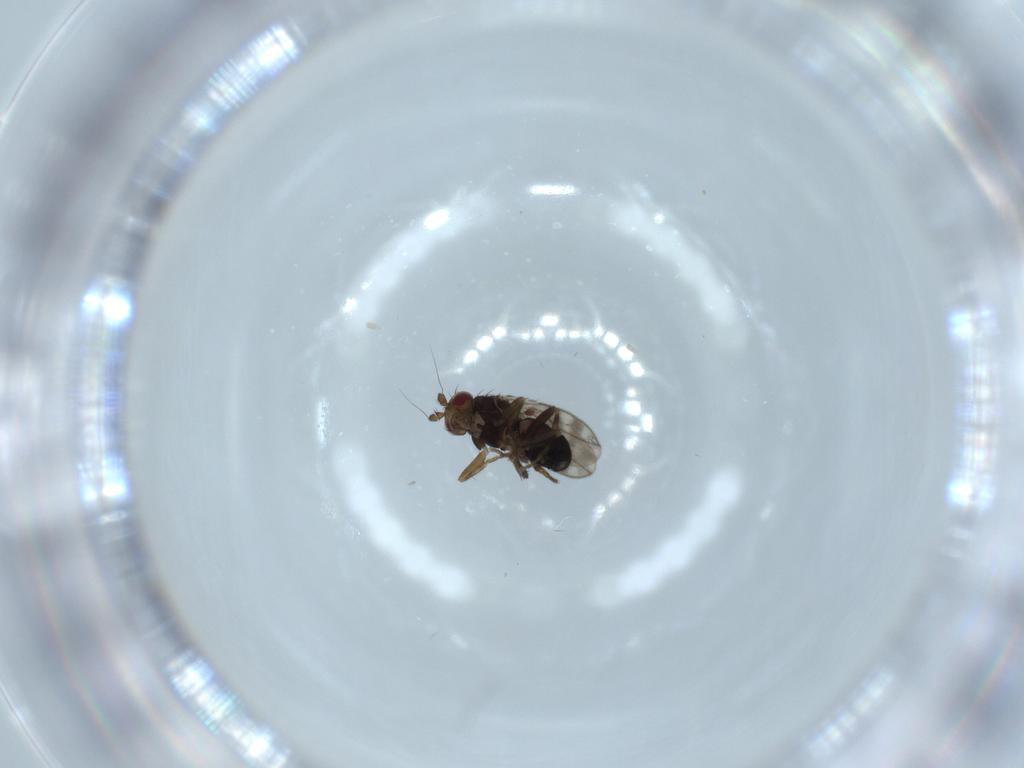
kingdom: Animalia
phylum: Arthropoda
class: Insecta
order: Diptera
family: Sphaeroceridae
